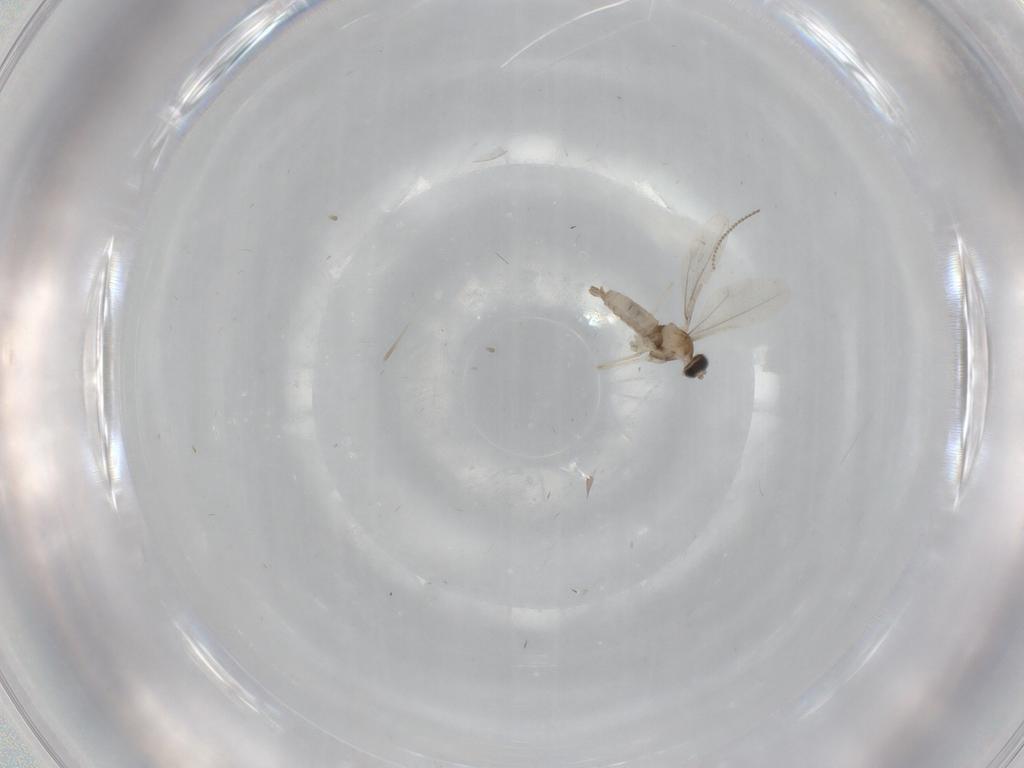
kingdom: Animalia
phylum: Arthropoda
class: Insecta
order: Diptera
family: Cecidomyiidae
